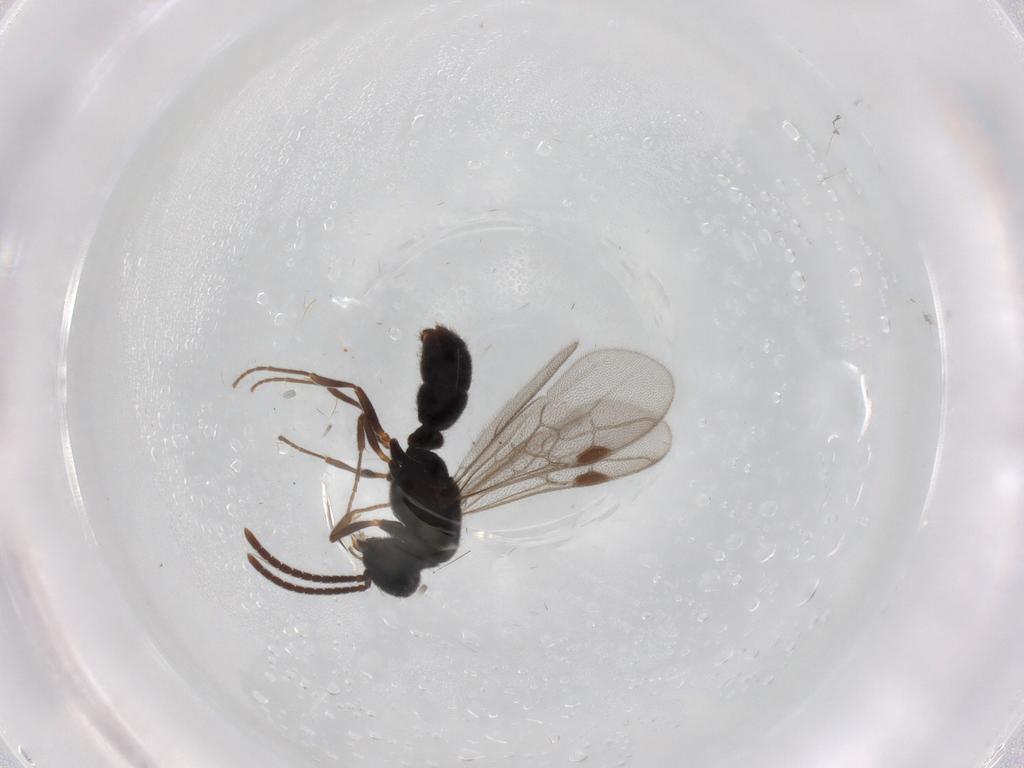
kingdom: Animalia
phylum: Arthropoda
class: Insecta
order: Hymenoptera
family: Formicidae
